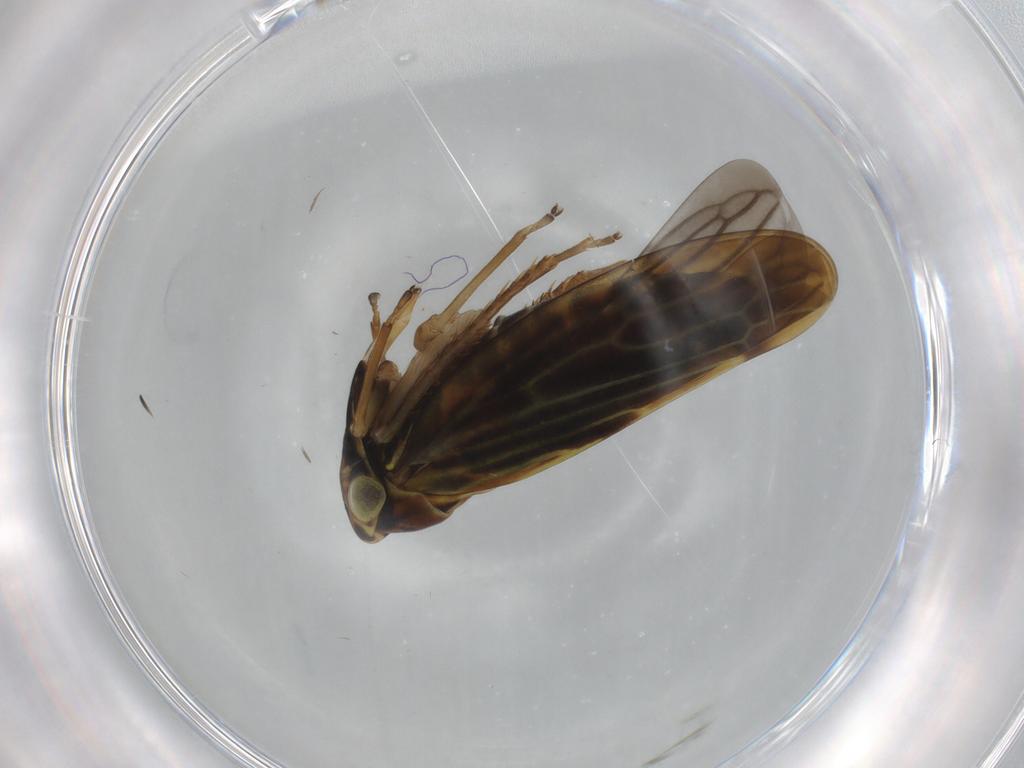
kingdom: Animalia
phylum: Arthropoda
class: Insecta
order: Hemiptera
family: Cicadellidae
